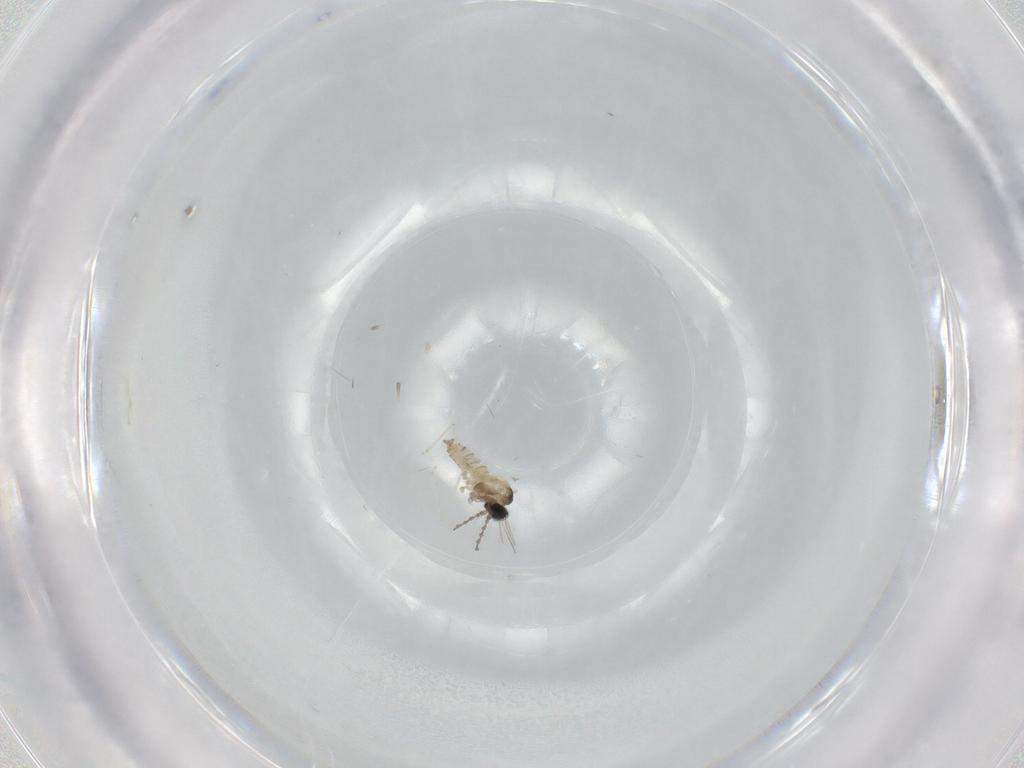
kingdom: Animalia
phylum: Arthropoda
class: Insecta
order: Diptera
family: Cecidomyiidae
